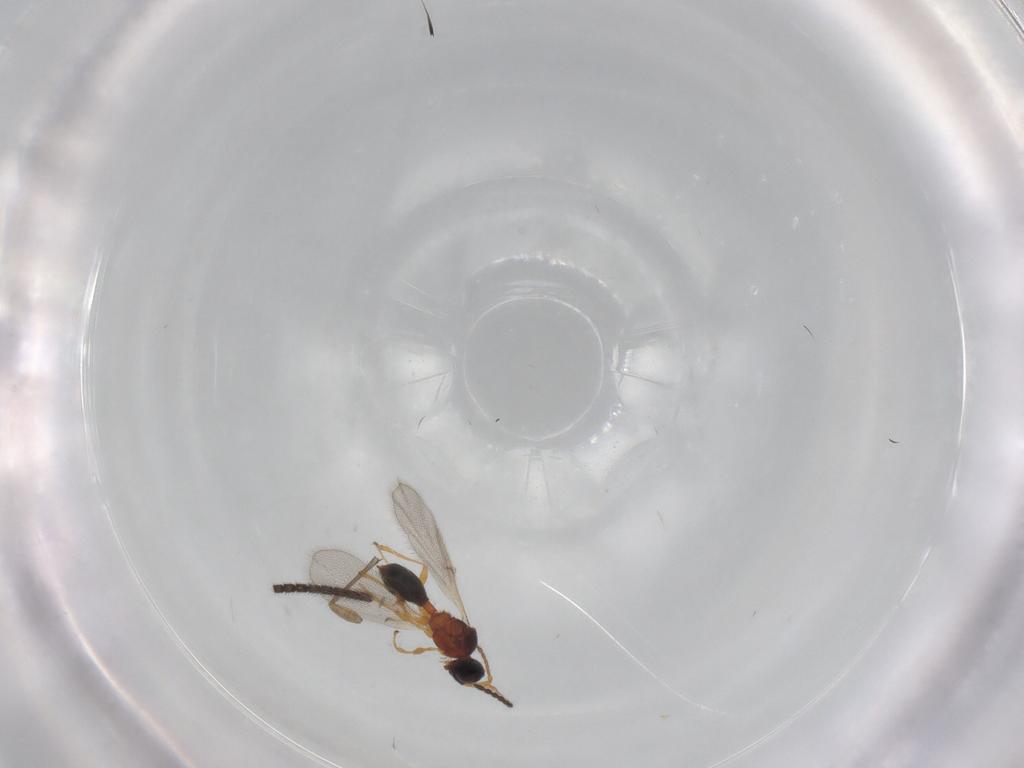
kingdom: Animalia
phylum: Arthropoda
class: Insecta
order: Hymenoptera
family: Diapriidae
